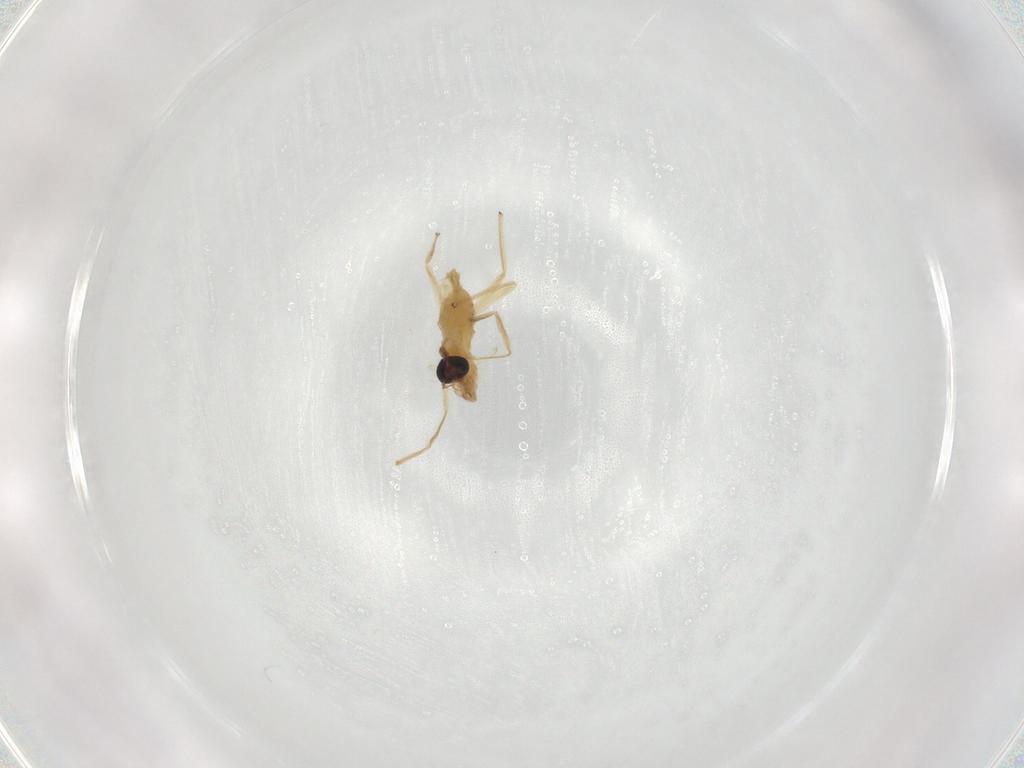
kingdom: Animalia
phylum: Arthropoda
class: Insecta
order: Diptera
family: Chironomidae
